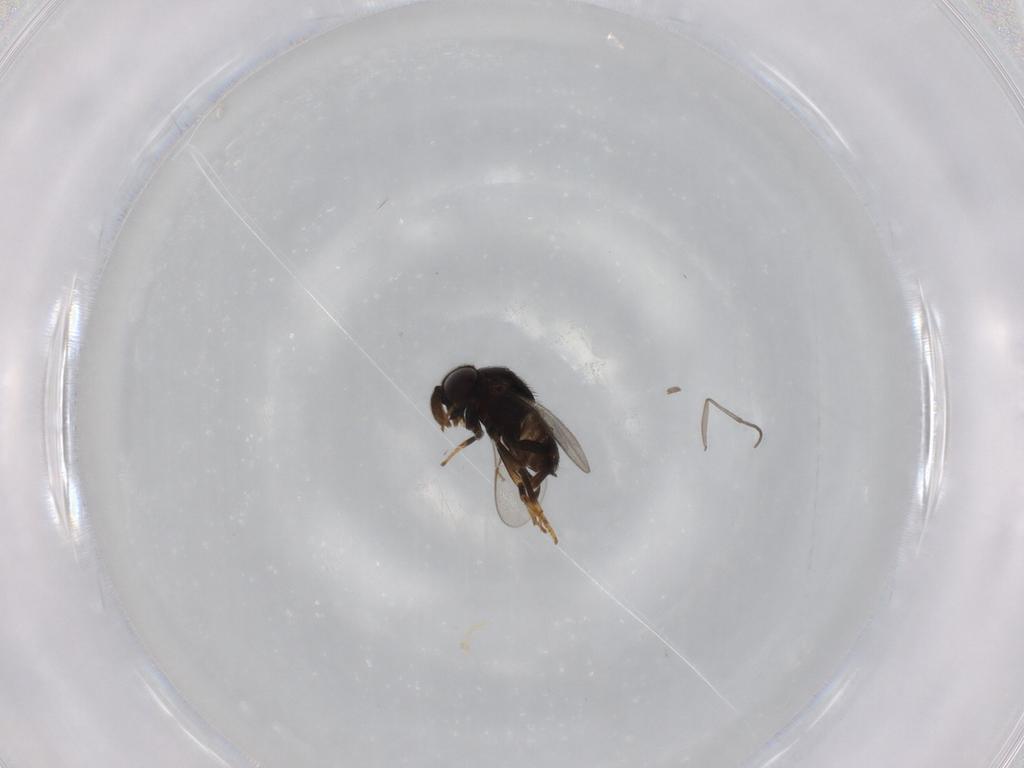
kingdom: Animalia
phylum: Arthropoda
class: Insecta
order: Hymenoptera
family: Encyrtidae
